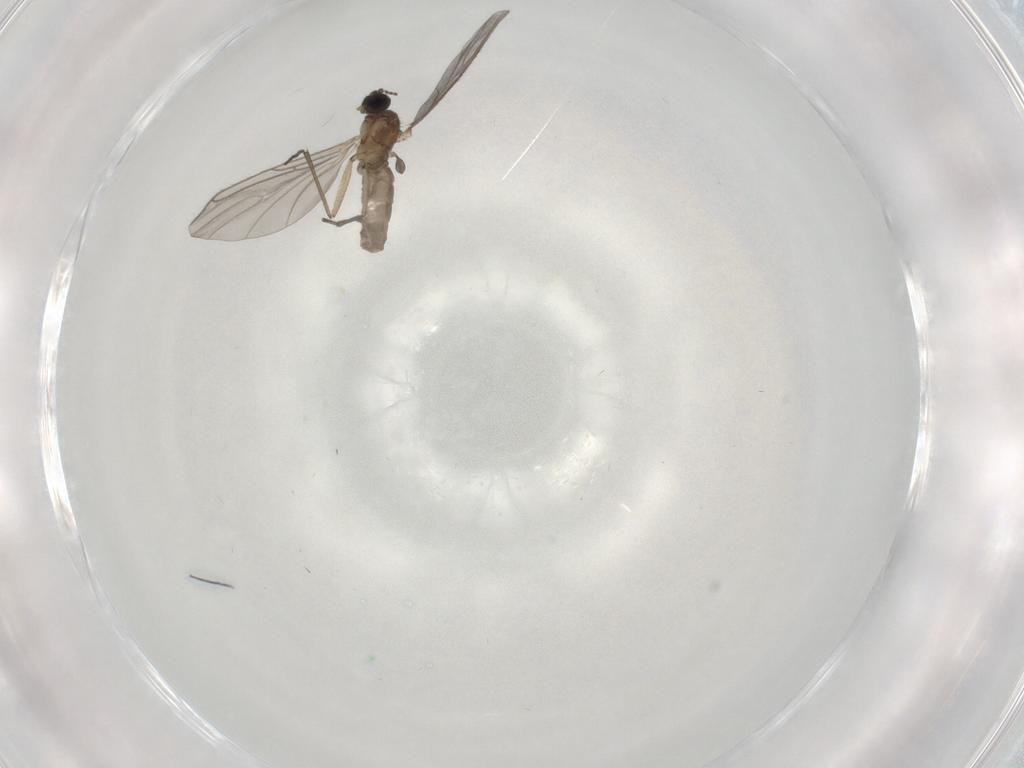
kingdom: Animalia
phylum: Arthropoda
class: Insecta
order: Diptera
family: Sciaridae
